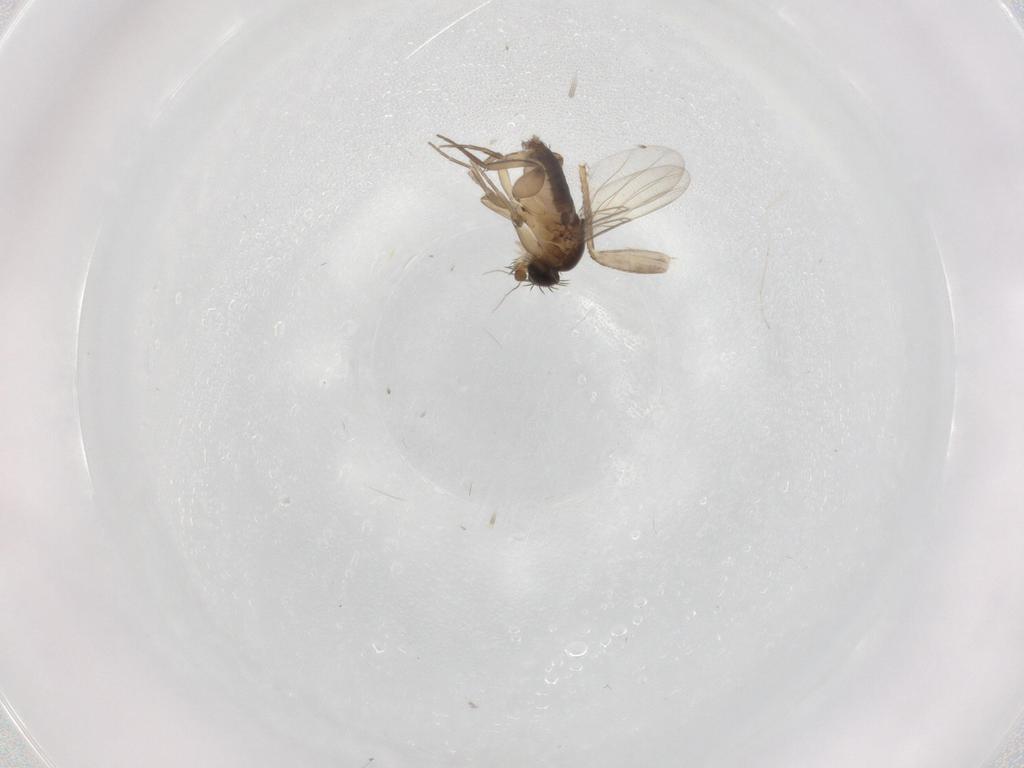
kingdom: Animalia
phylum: Arthropoda
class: Insecta
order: Diptera
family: Phoridae
